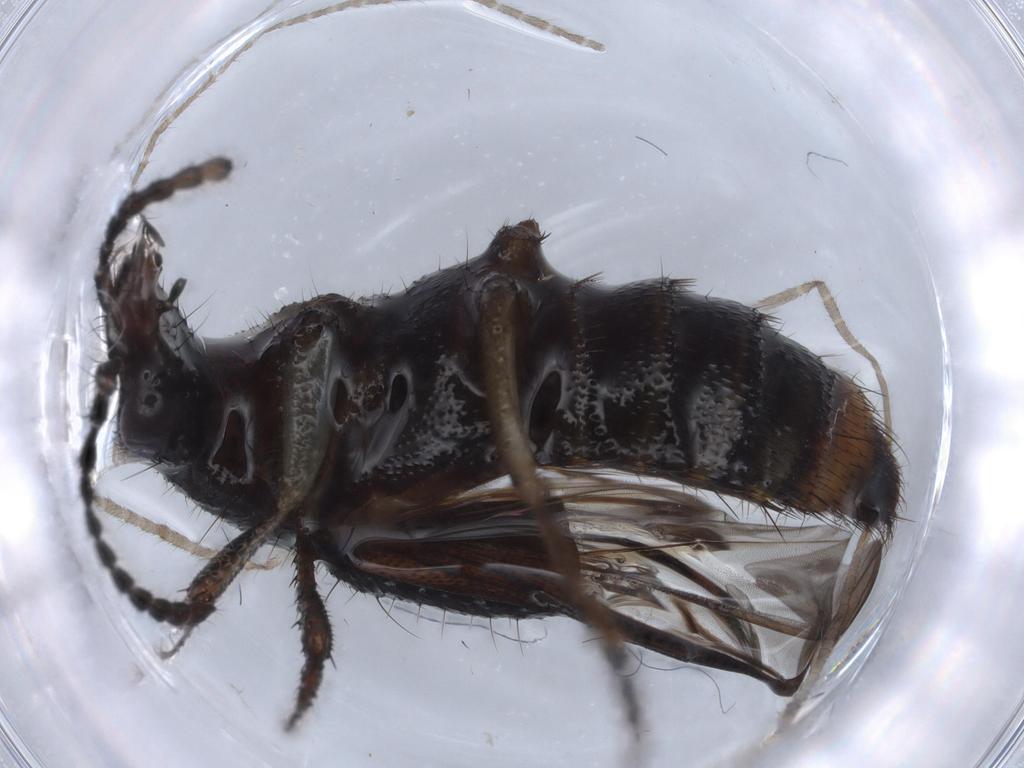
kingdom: Animalia
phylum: Arthropoda
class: Insecta
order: Coleoptera
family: Staphylinidae
